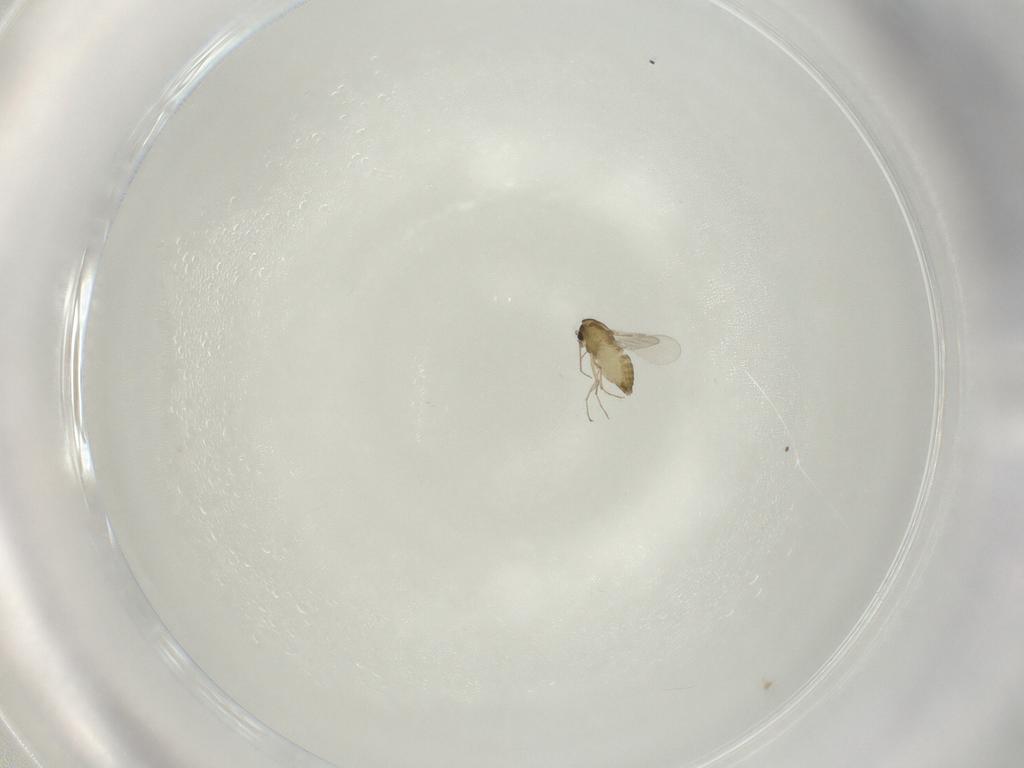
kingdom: Animalia
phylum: Arthropoda
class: Insecta
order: Diptera
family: Chironomidae
